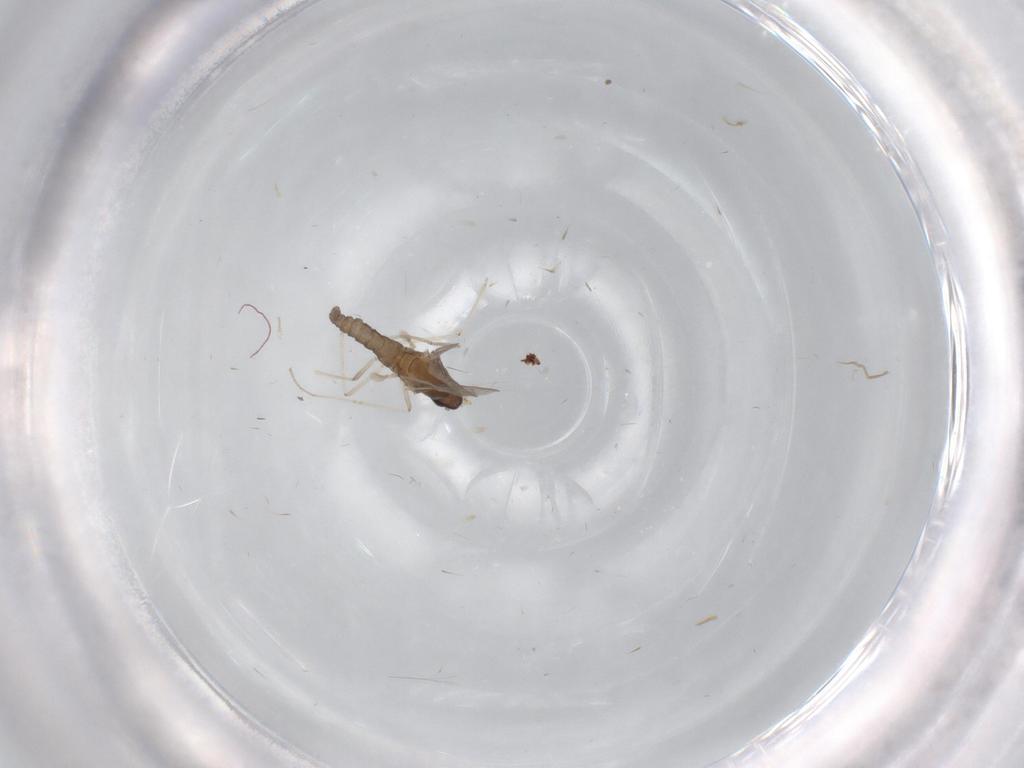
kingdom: Animalia
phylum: Arthropoda
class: Insecta
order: Diptera
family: Chironomidae
